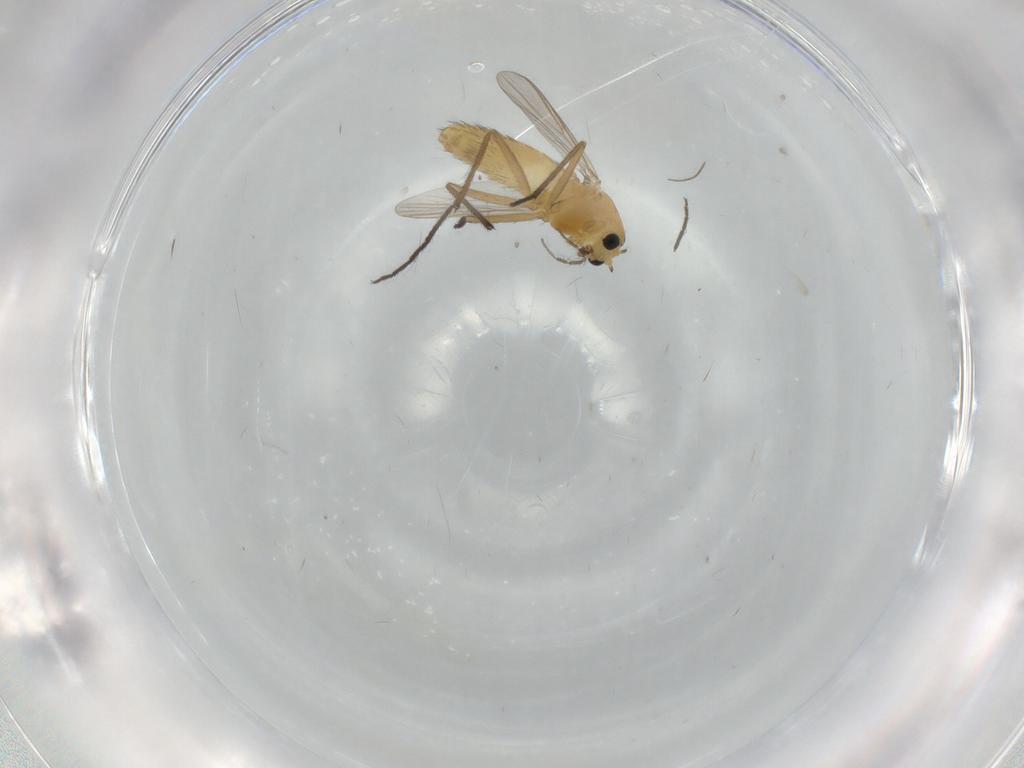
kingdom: Animalia
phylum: Arthropoda
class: Insecta
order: Diptera
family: Chironomidae
